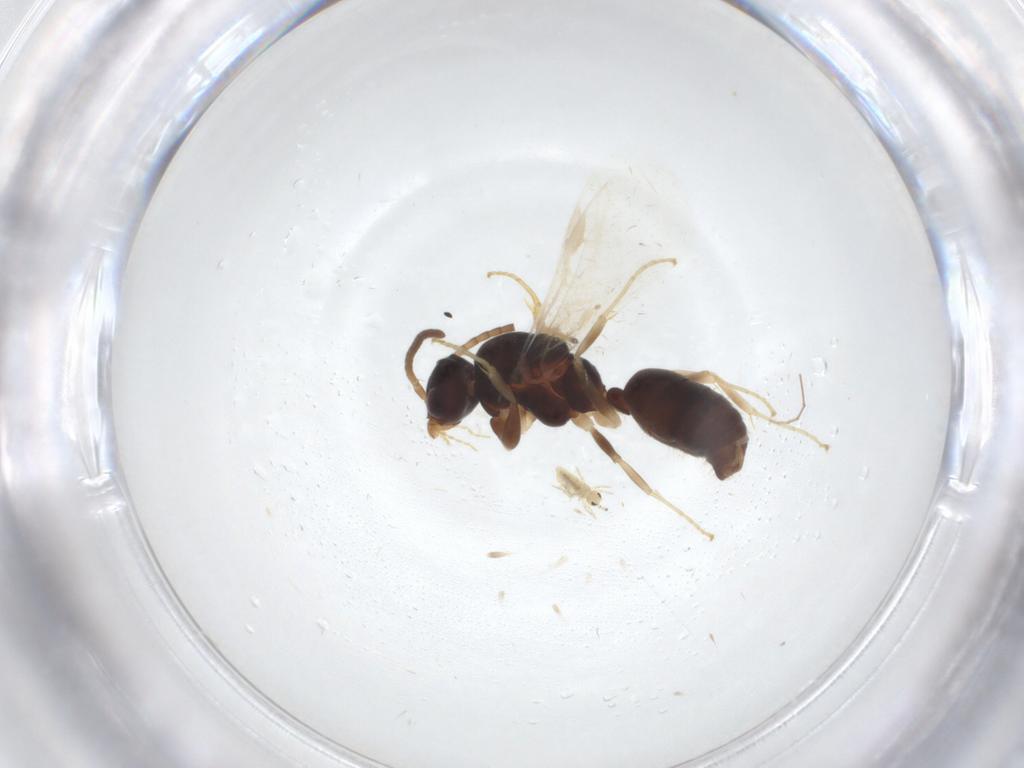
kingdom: Animalia
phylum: Arthropoda
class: Insecta
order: Hymenoptera
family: Formicidae
